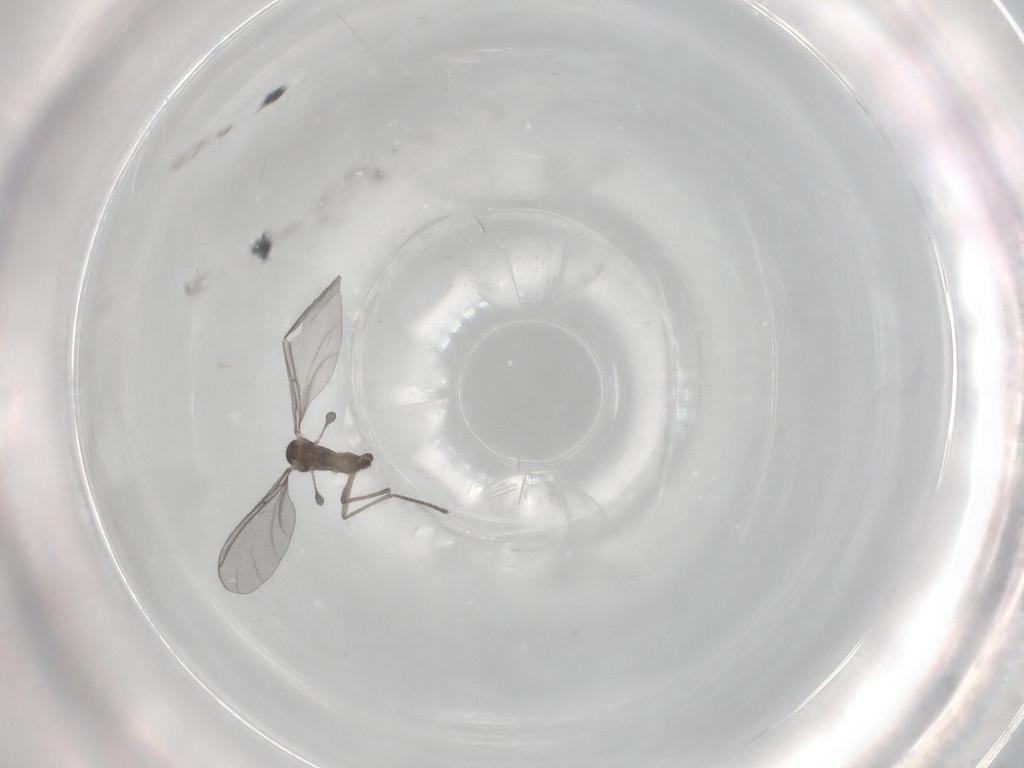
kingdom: Animalia
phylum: Arthropoda
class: Insecta
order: Diptera
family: Sciaridae
